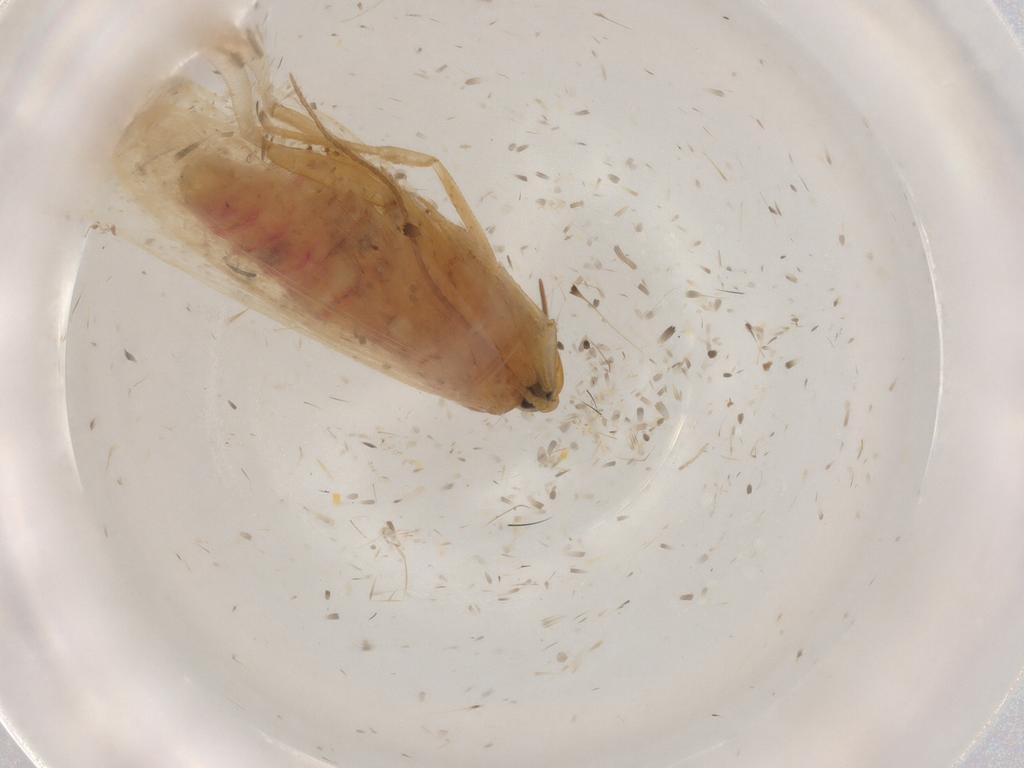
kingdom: Animalia
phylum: Arthropoda
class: Insecta
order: Lepidoptera
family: Cosmopterigidae
